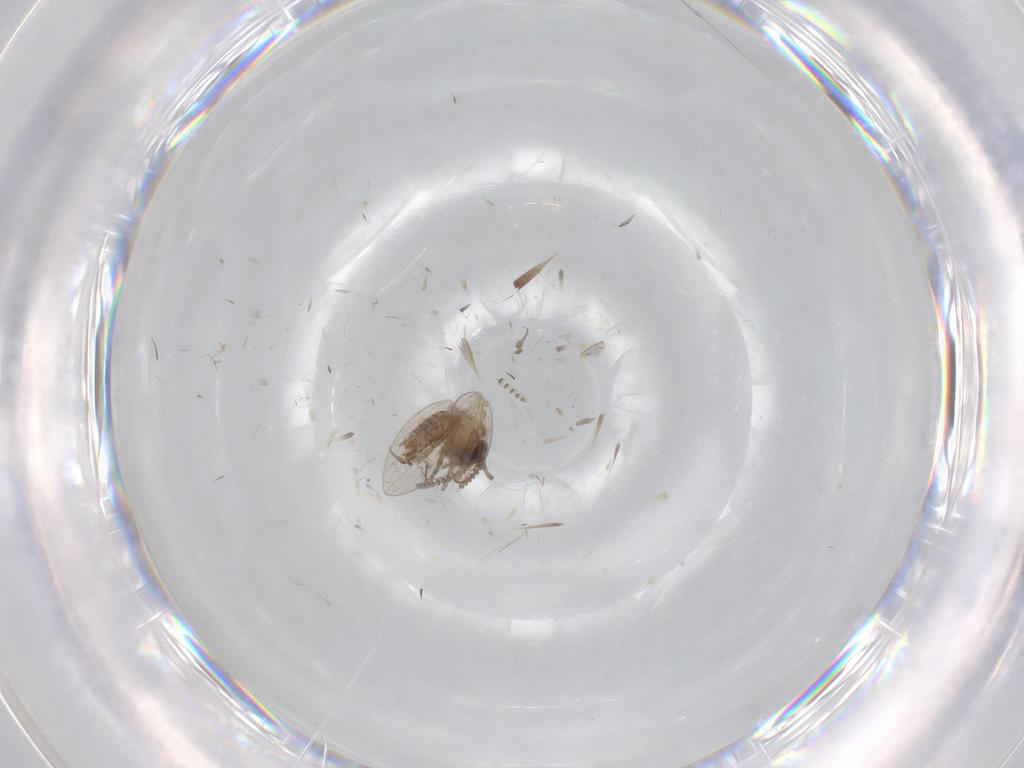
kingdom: Animalia
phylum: Arthropoda
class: Insecta
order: Diptera
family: Chironomidae
